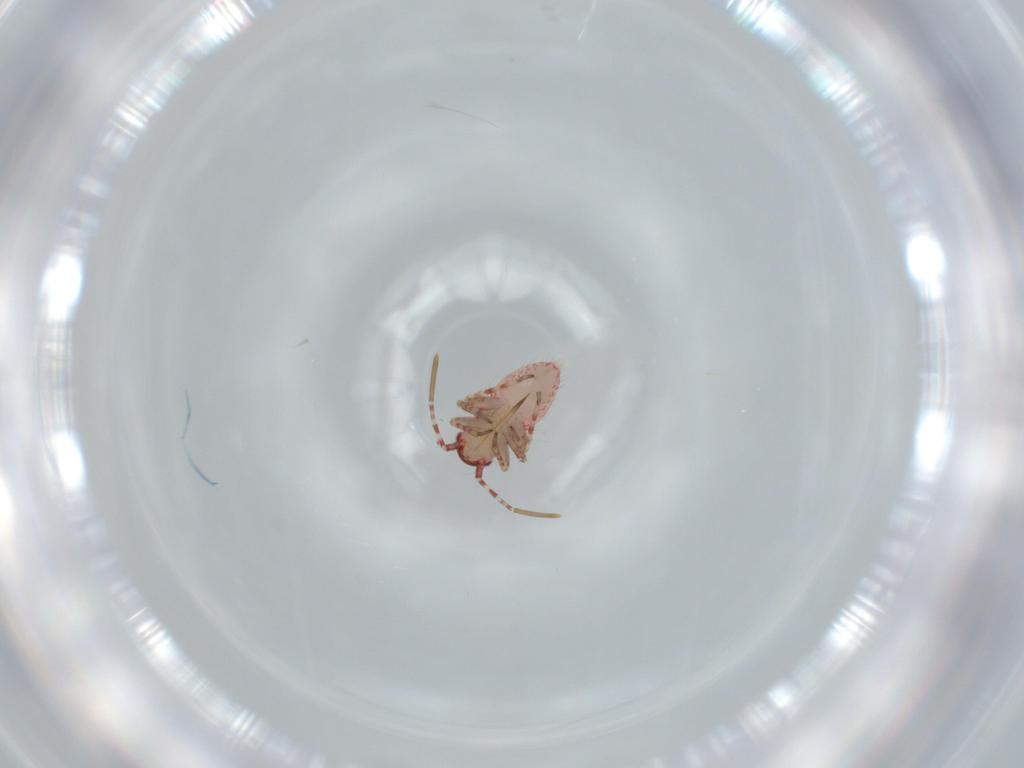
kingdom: Animalia
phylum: Arthropoda
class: Insecta
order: Hemiptera
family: Miridae
